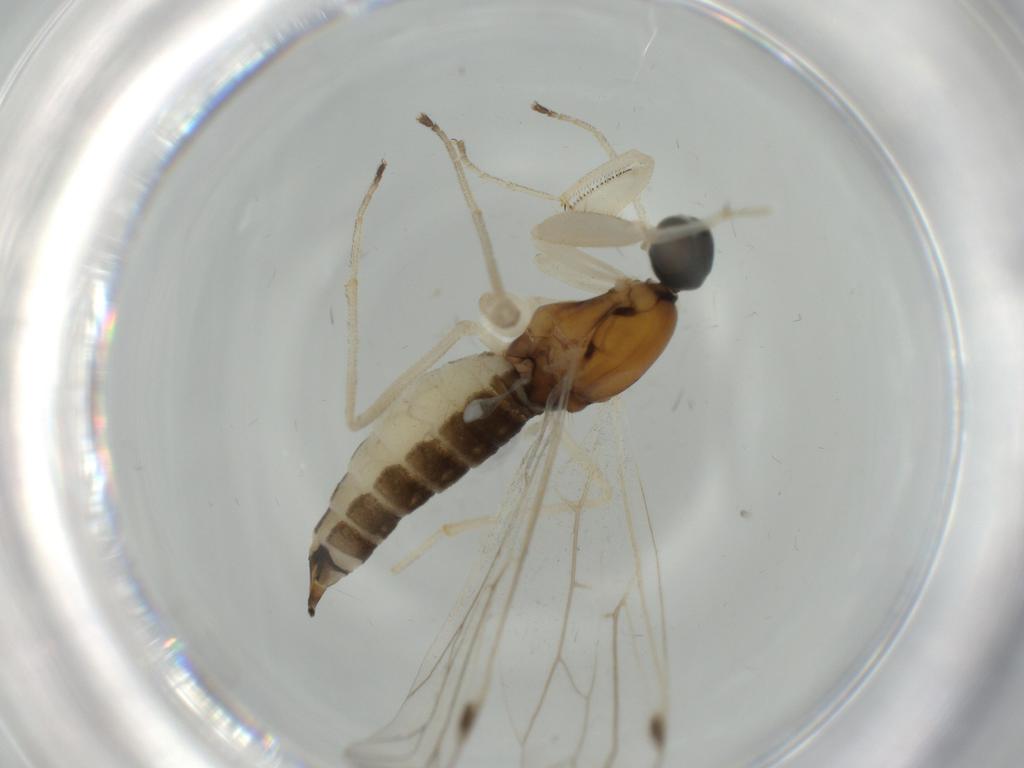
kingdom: Animalia
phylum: Arthropoda
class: Insecta
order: Diptera
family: Empididae
